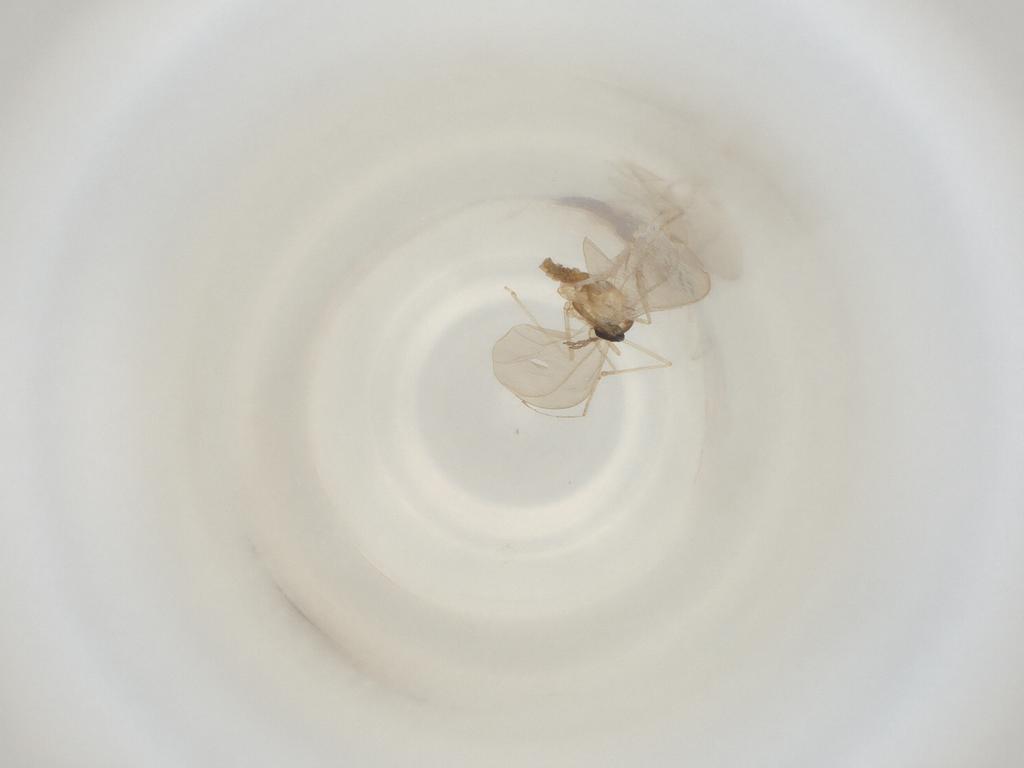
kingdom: Animalia
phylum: Arthropoda
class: Insecta
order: Diptera
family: Cecidomyiidae
